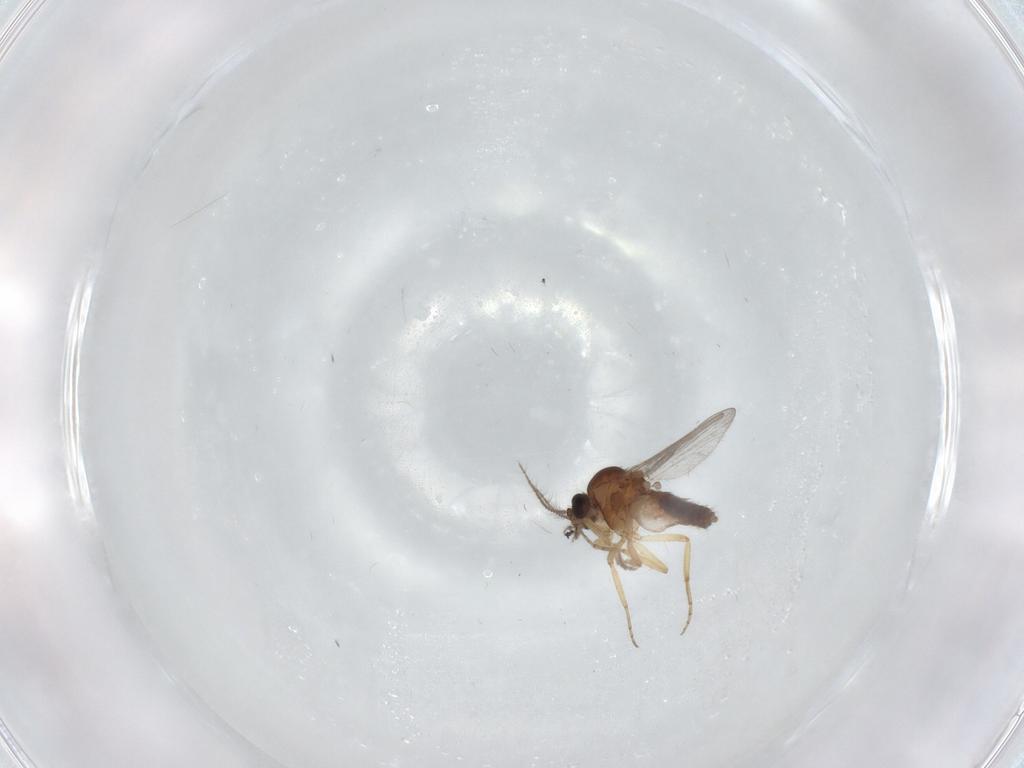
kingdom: Animalia
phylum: Arthropoda
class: Insecta
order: Diptera
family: Ceratopogonidae
